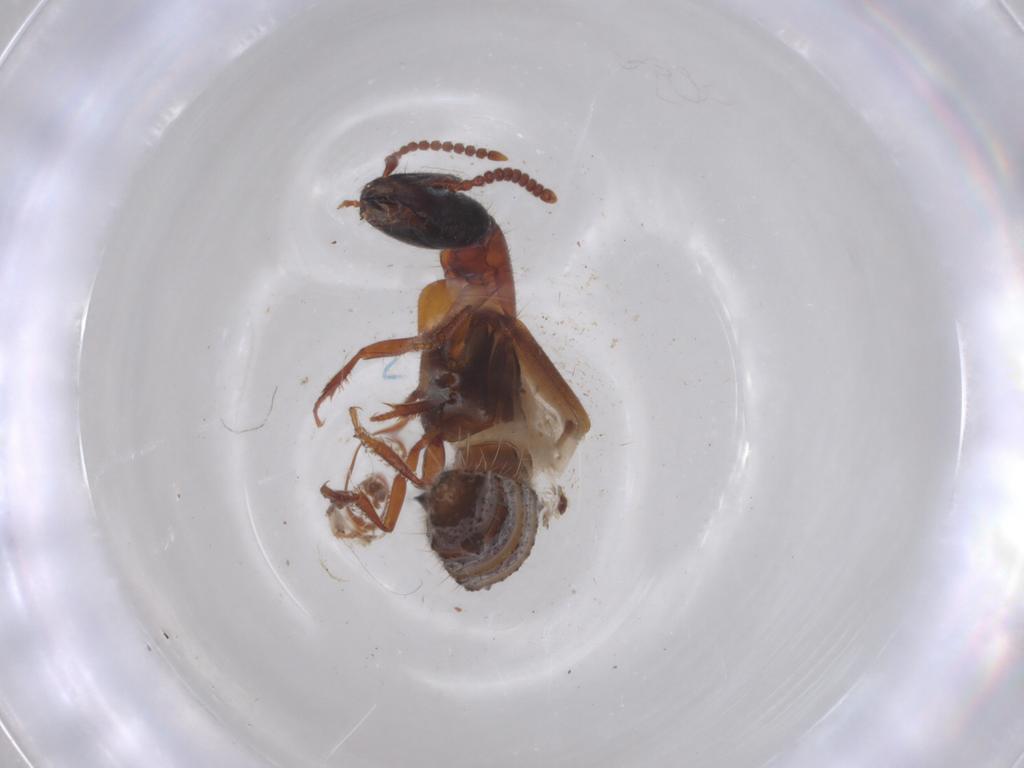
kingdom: Animalia
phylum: Arthropoda
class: Insecta
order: Coleoptera
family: Staphylinidae
